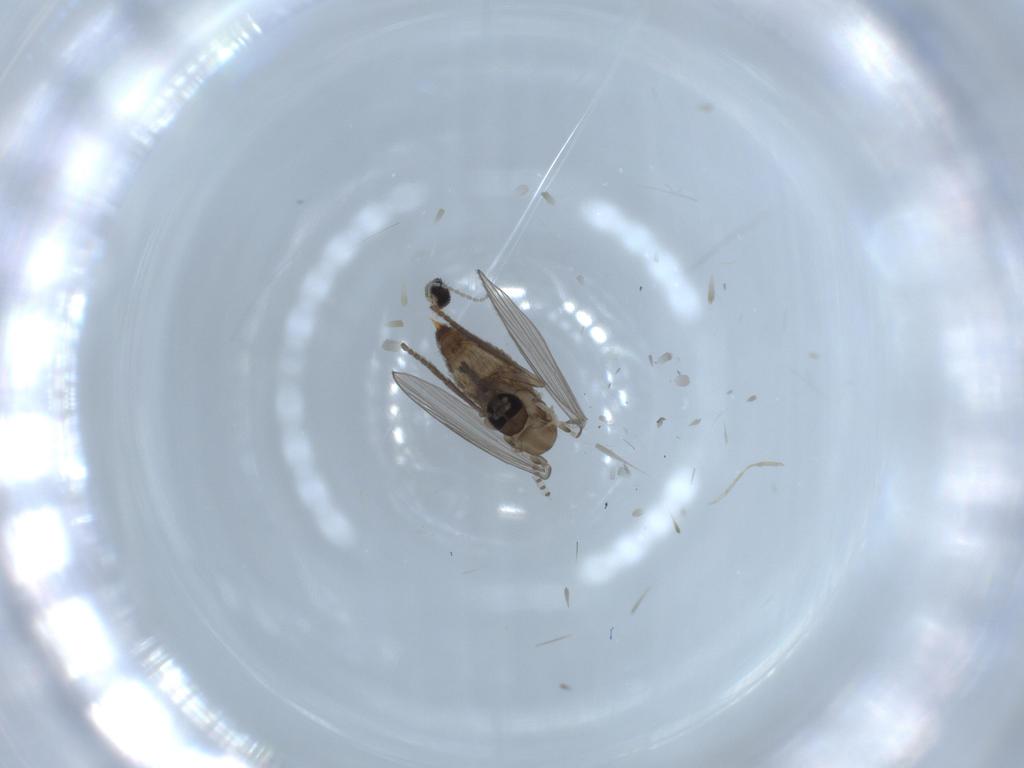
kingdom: Animalia
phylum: Arthropoda
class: Insecta
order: Diptera
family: Psychodidae
